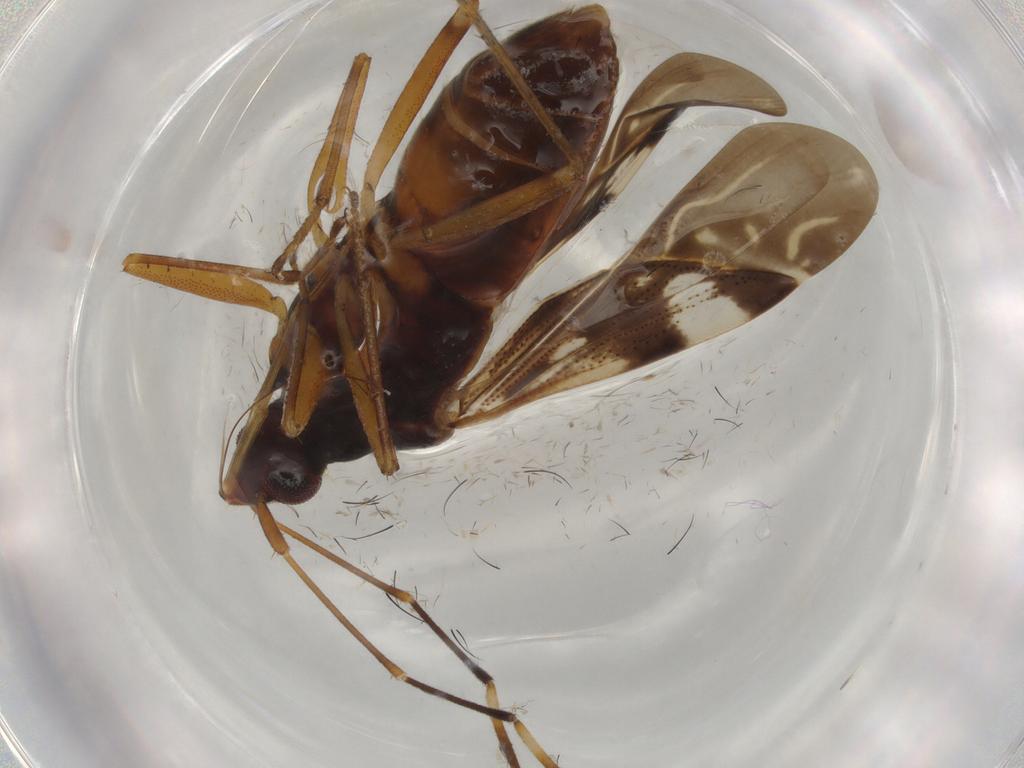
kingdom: Animalia
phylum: Arthropoda
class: Insecta
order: Hemiptera
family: Rhyparochromidae
